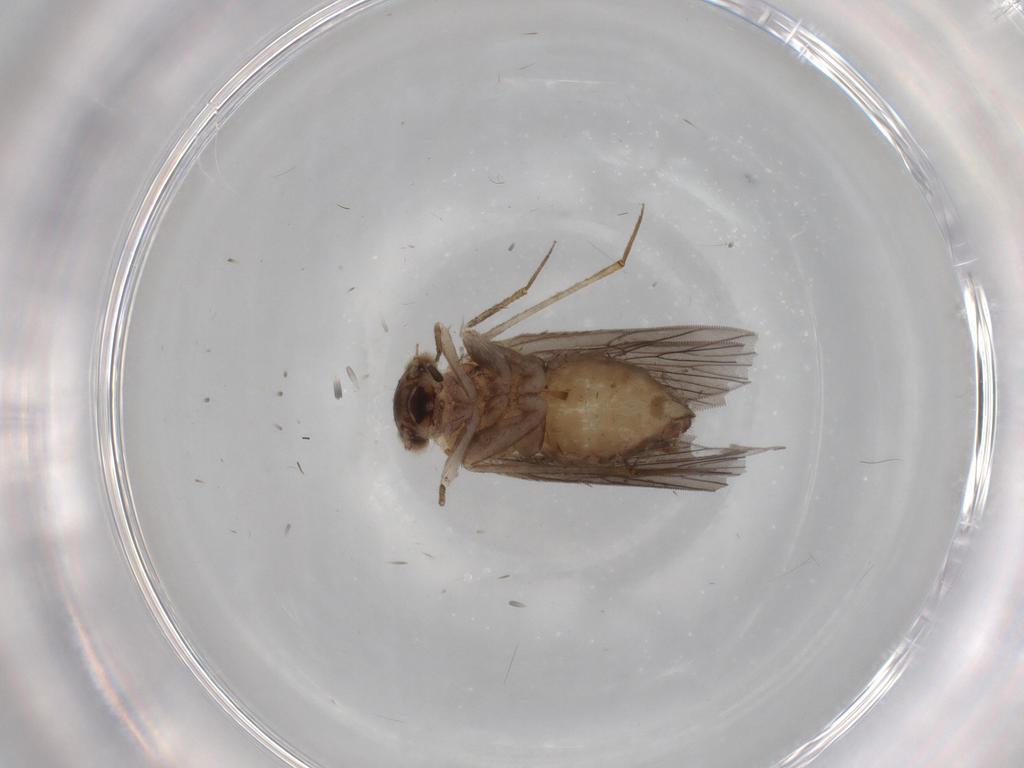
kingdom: Animalia
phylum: Arthropoda
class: Insecta
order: Psocodea
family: Lepidopsocidae
